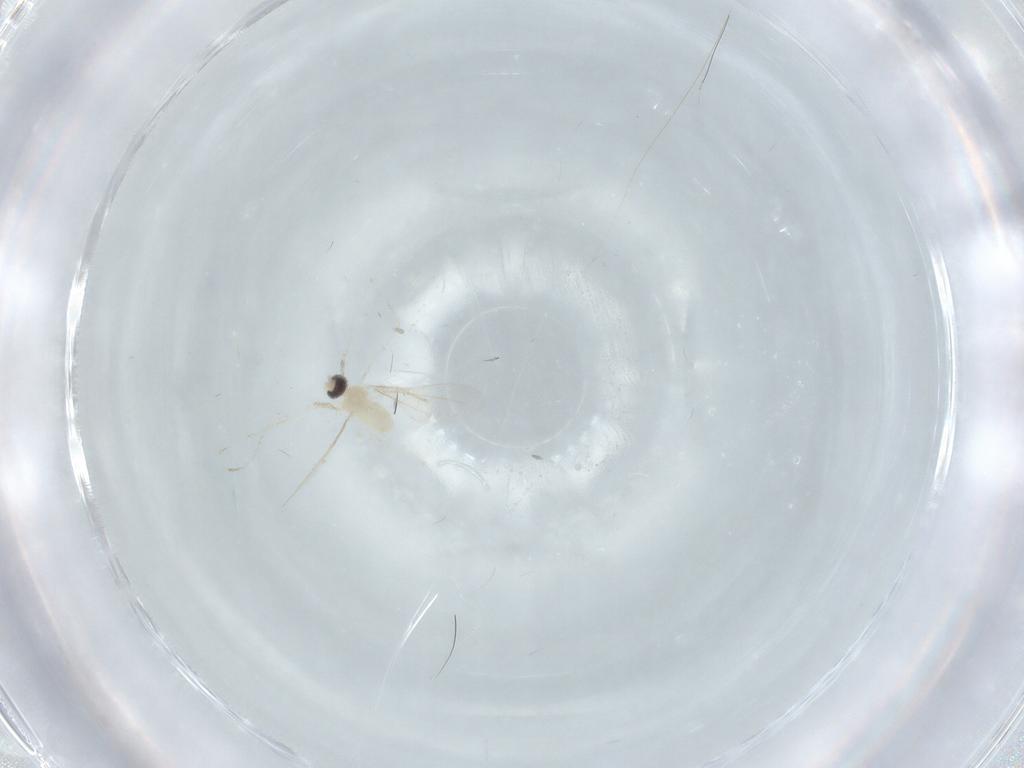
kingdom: Animalia
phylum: Arthropoda
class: Insecta
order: Diptera
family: Cecidomyiidae
